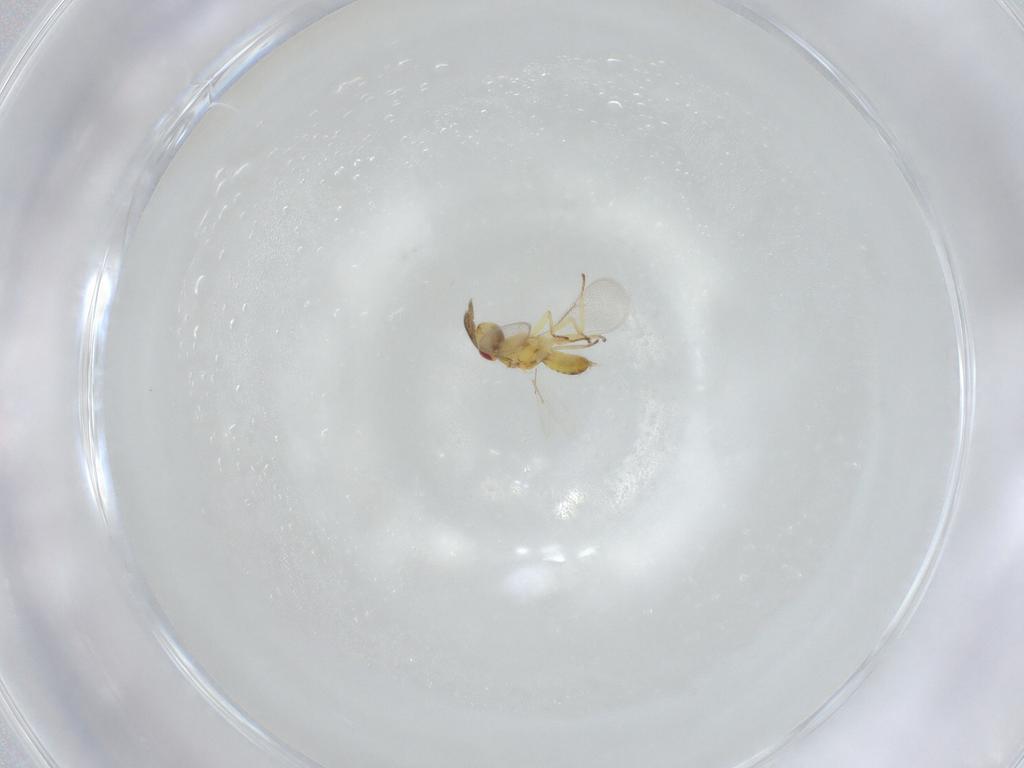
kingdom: Animalia
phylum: Arthropoda
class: Insecta
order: Hymenoptera
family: Eulophidae
